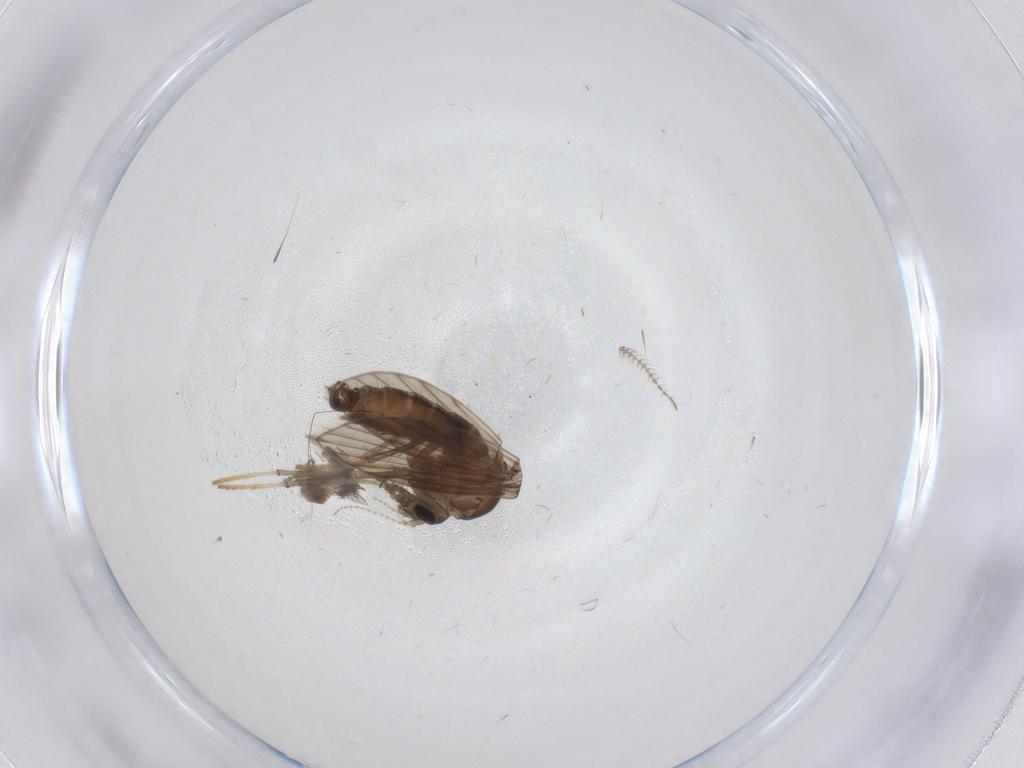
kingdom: Animalia
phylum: Arthropoda
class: Insecta
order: Diptera
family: Psychodidae
